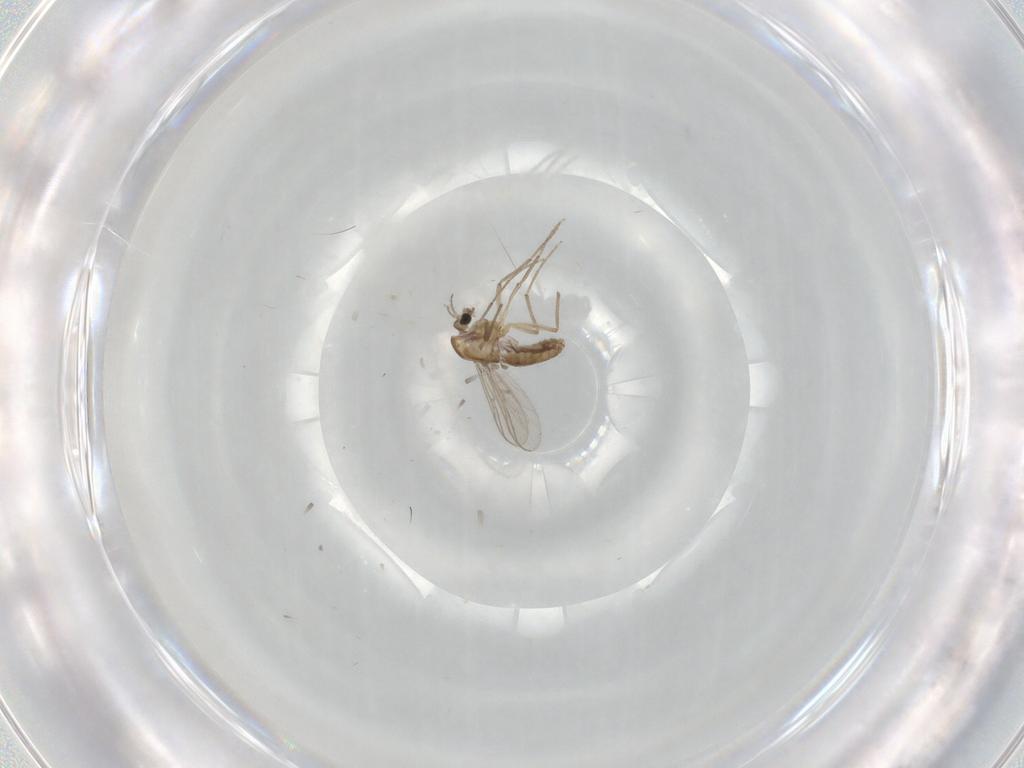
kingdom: Animalia
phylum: Arthropoda
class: Insecta
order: Diptera
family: Chironomidae
